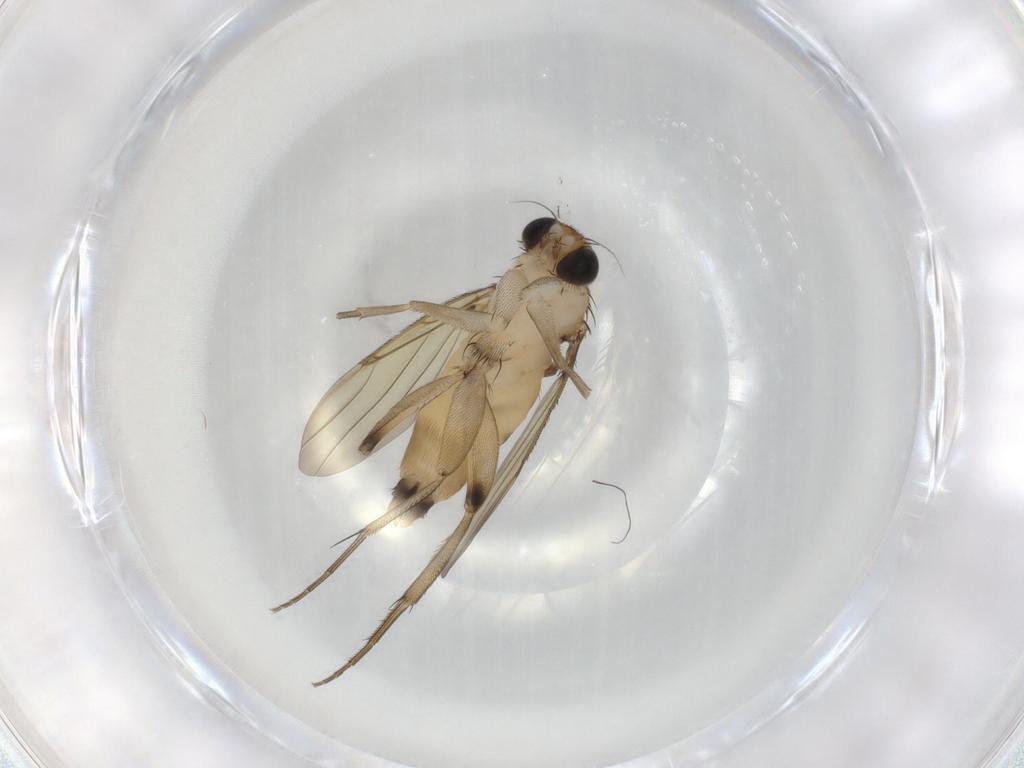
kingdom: Animalia
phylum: Arthropoda
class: Insecta
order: Diptera
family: Phoridae
